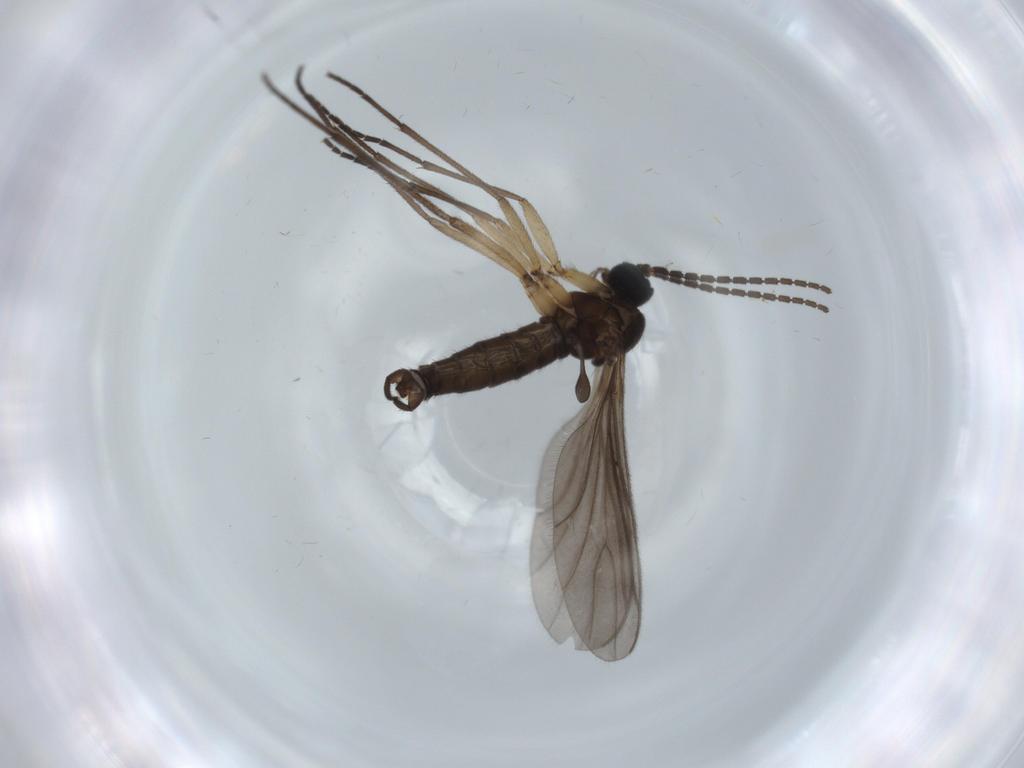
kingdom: Animalia
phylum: Arthropoda
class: Insecta
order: Diptera
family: Sciaridae
